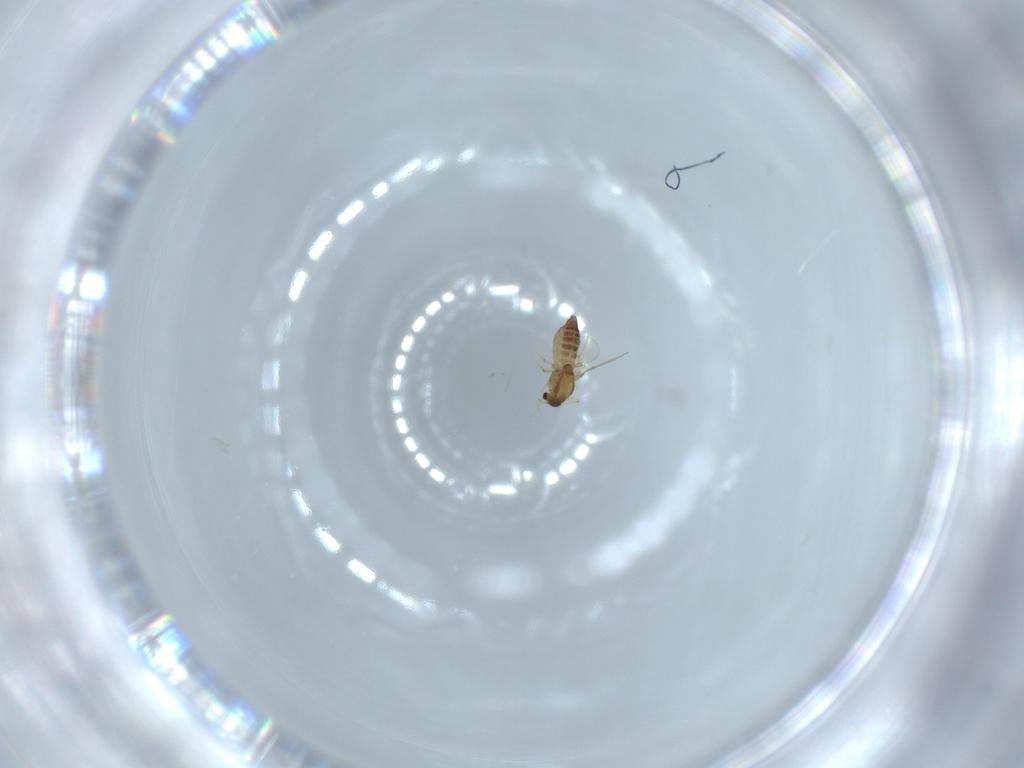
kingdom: Animalia
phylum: Arthropoda
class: Insecta
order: Diptera
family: Chironomidae
